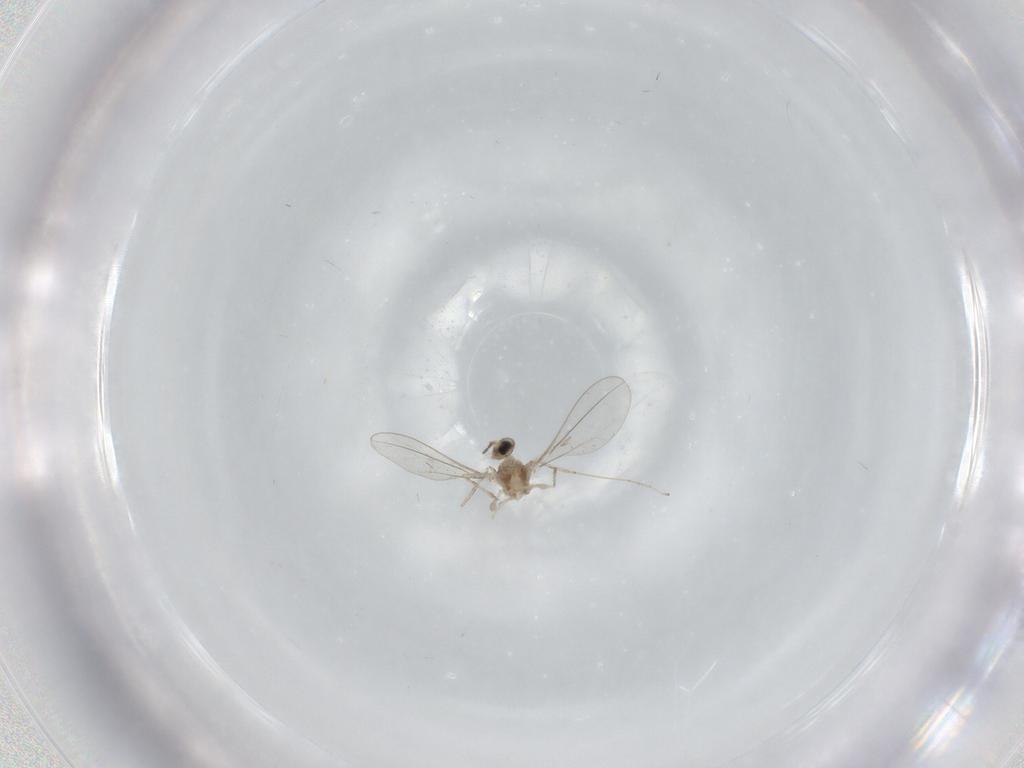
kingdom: Animalia
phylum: Arthropoda
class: Insecta
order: Diptera
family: Cecidomyiidae
